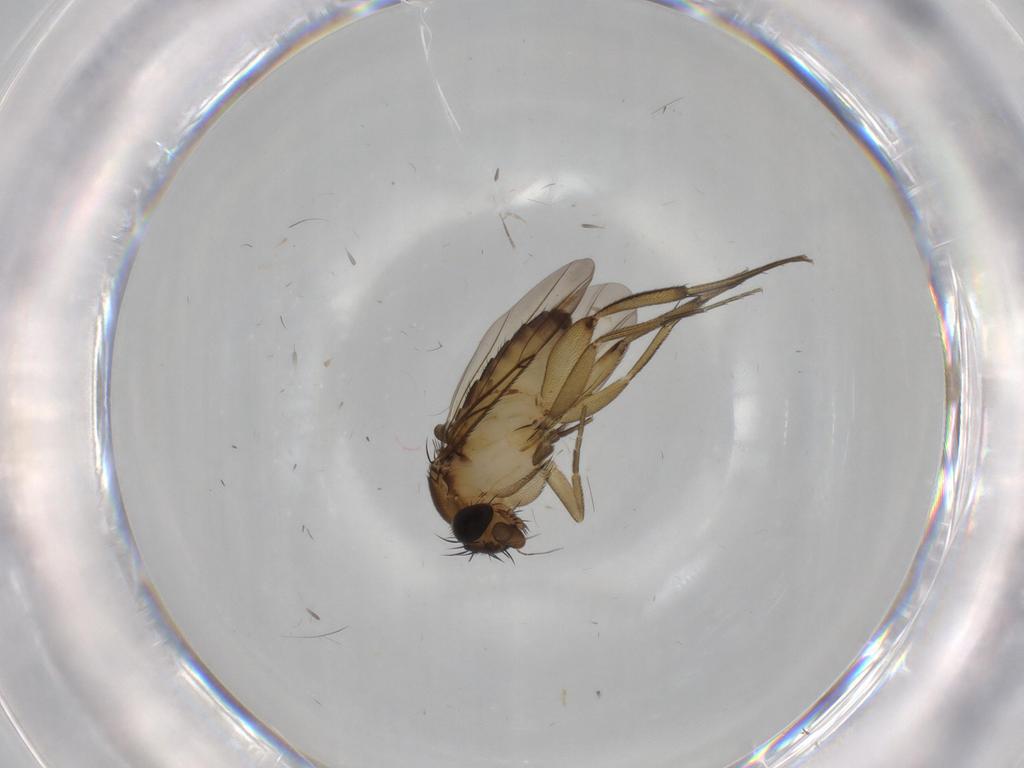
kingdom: Animalia
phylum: Arthropoda
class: Insecta
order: Diptera
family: Phoridae
